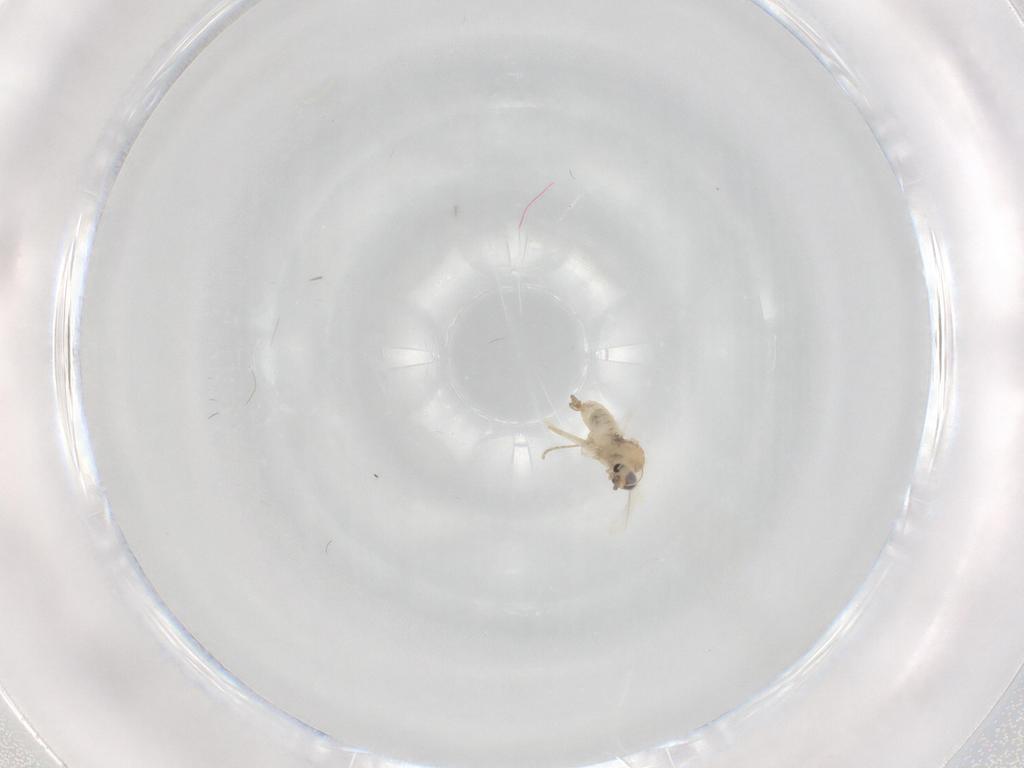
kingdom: Animalia
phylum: Arthropoda
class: Insecta
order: Diptera
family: Cecidomyiidae
